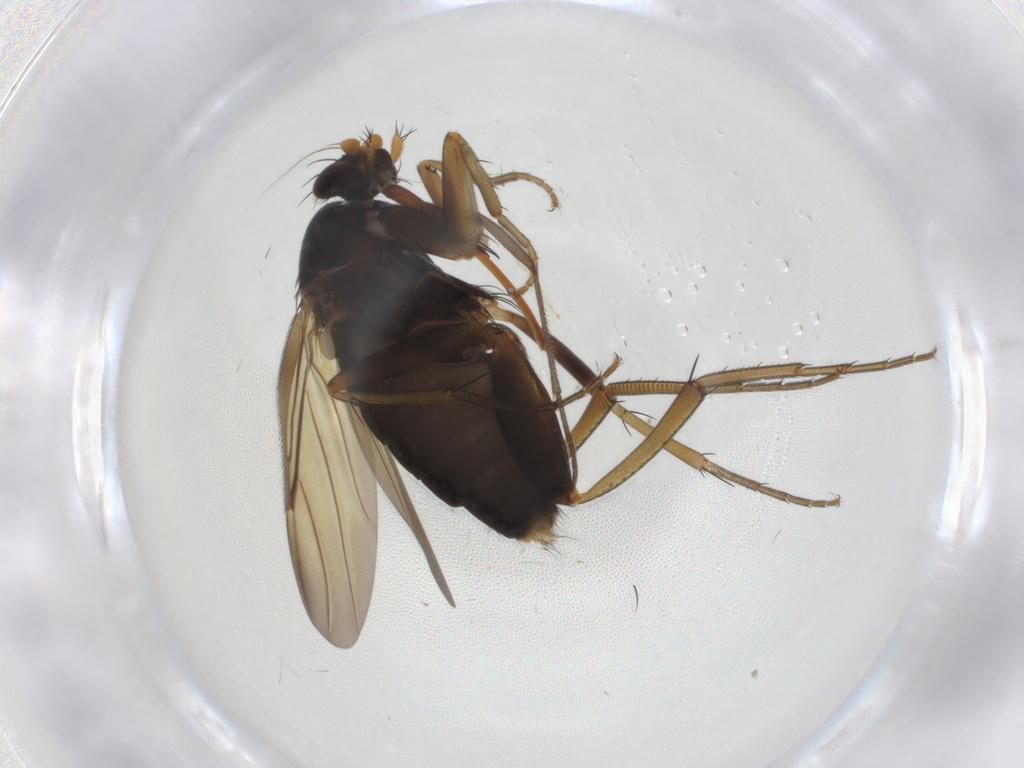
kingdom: Animalia
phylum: Arthropoda
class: Insecta
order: Diptera
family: Phoridae
